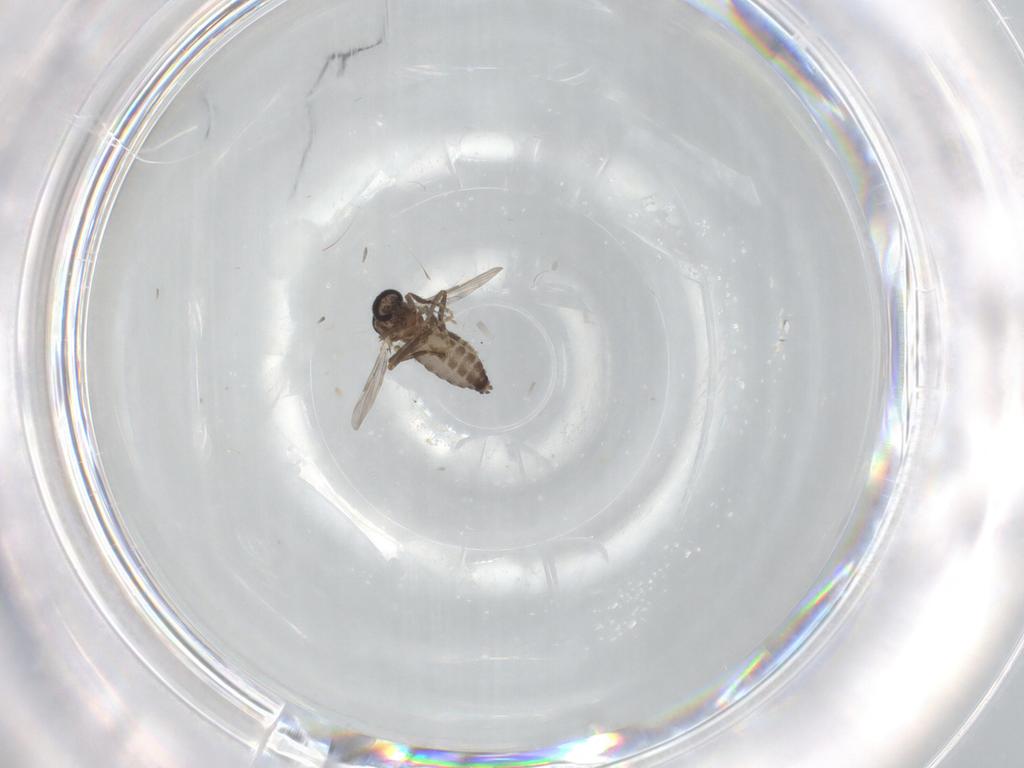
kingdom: Animalia
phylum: Arthropoda
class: Insecta
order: Diptera
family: Ceratopogonidae
